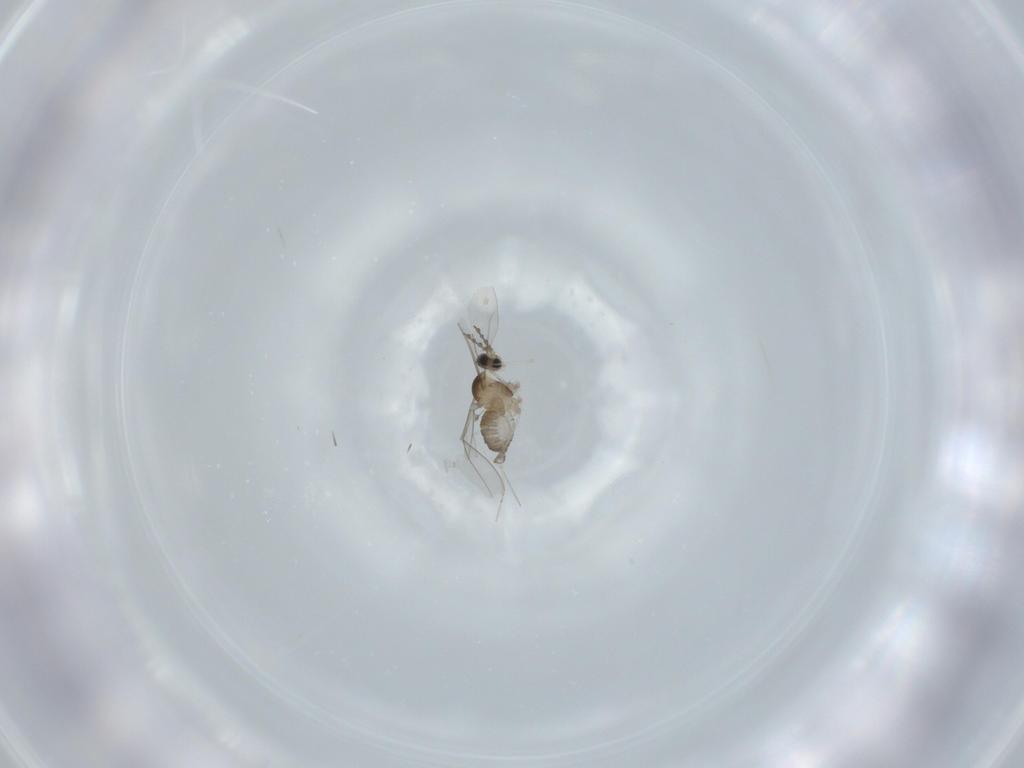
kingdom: Animalia
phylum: Arthropoda
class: Insecta
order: Diptera
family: Cecidomyiidae
